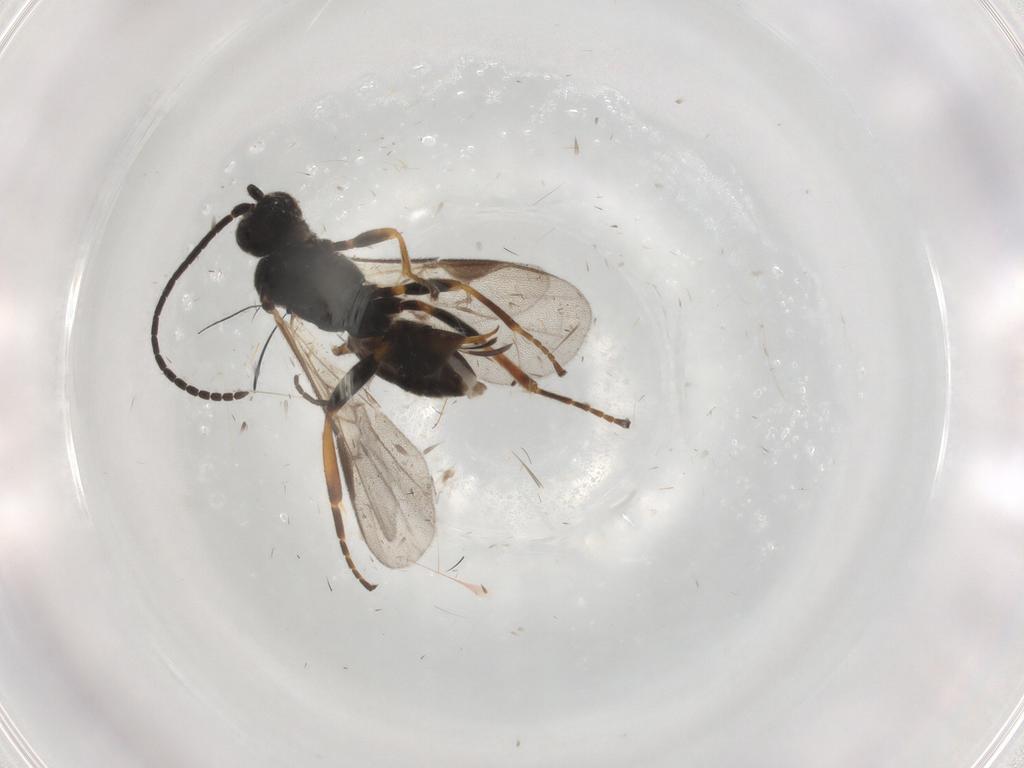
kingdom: Animalia
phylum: Arthropoda
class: Insecta
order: Hymenoptera
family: Braconidae
